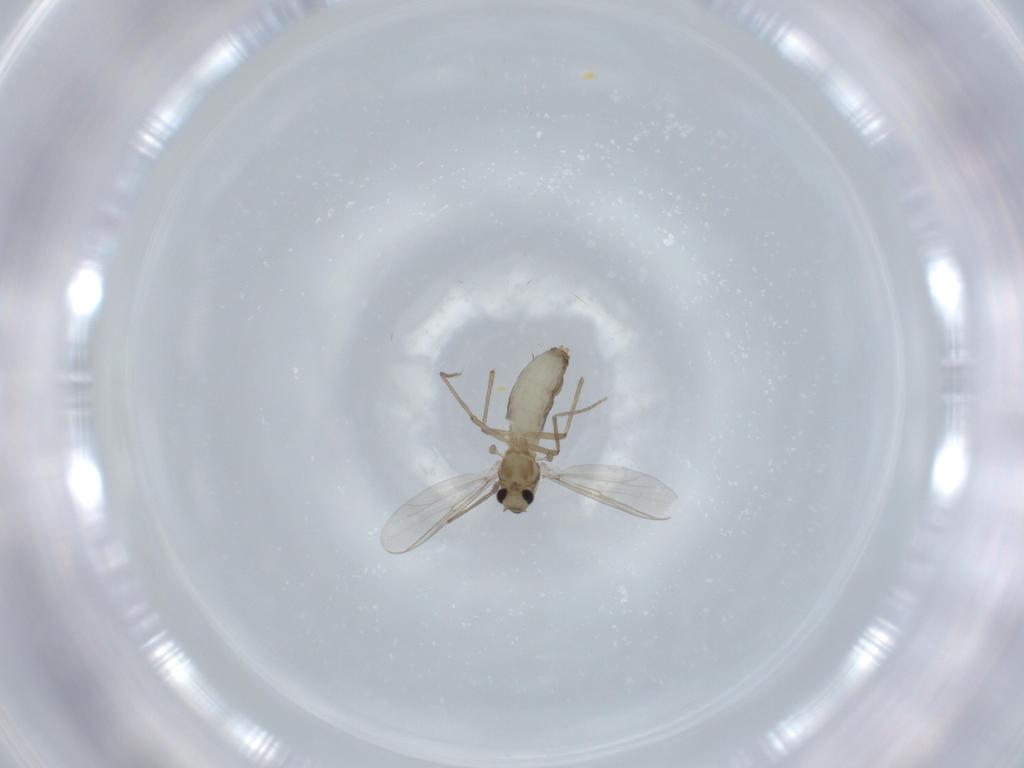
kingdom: Animalia
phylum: Arthropoda
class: Insecta
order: Diptera
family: Chironomidae
